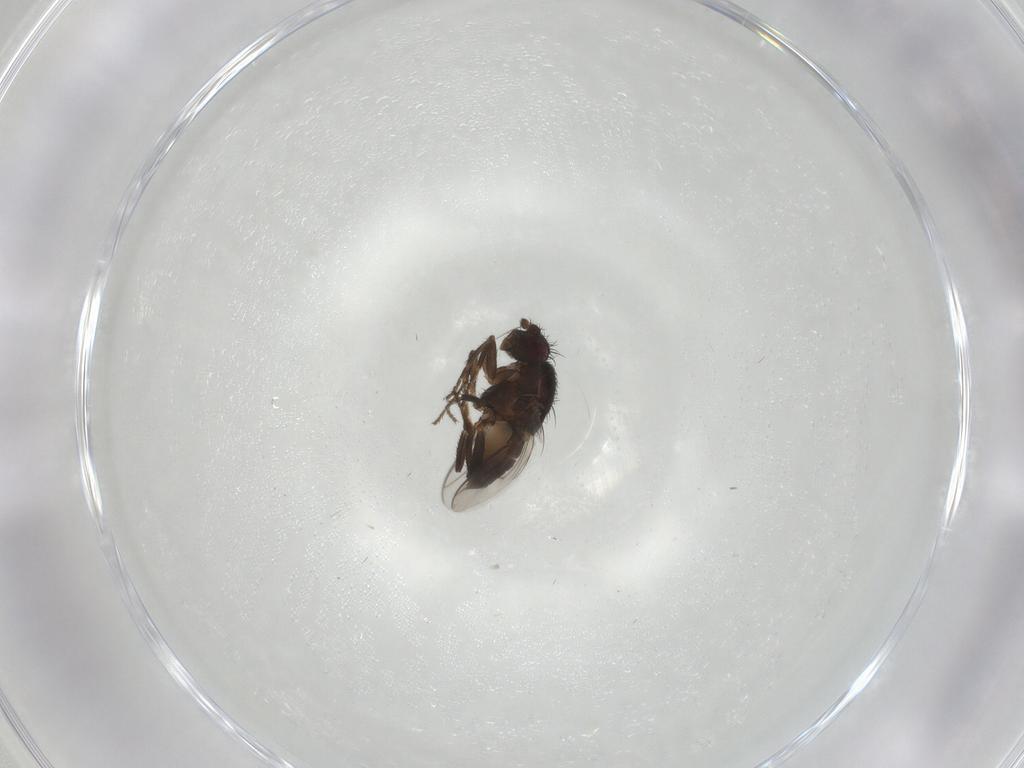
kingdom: Animalia
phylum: Arthropoda
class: Insecta
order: Diptera
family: Sphaeroceridae
